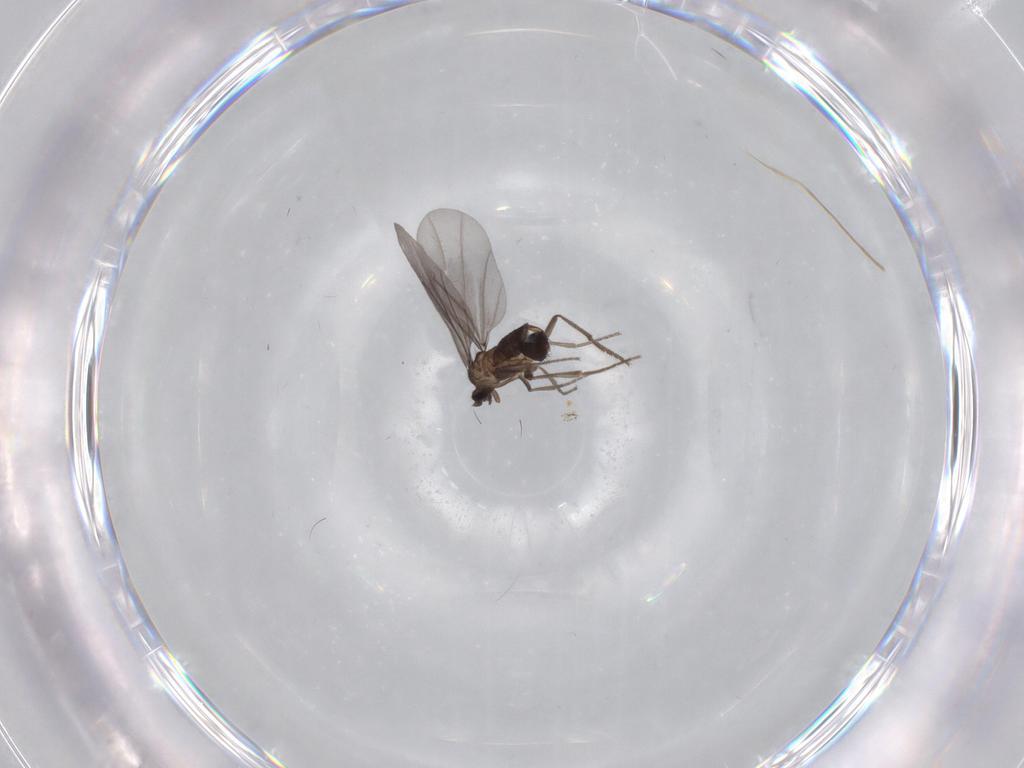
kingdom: Animalia
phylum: Arthropoda
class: Insecta
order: Diptera
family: Phoridae
